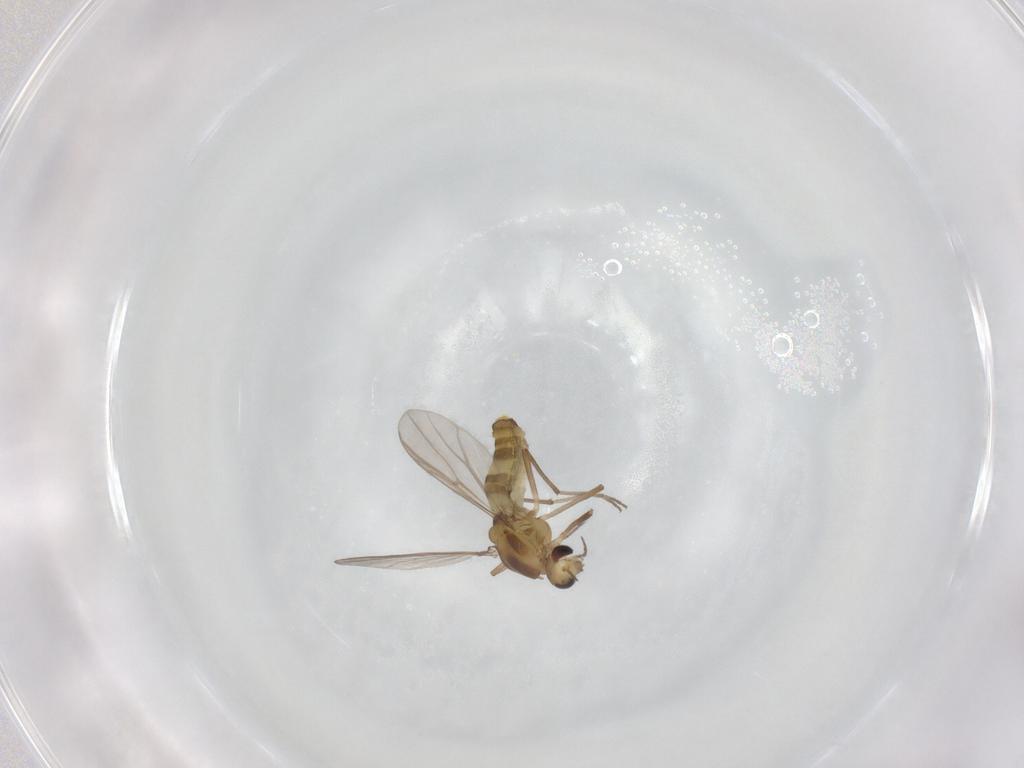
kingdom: Animalia
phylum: Arthropoda
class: Insecta
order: Diptera
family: Chironomidae
